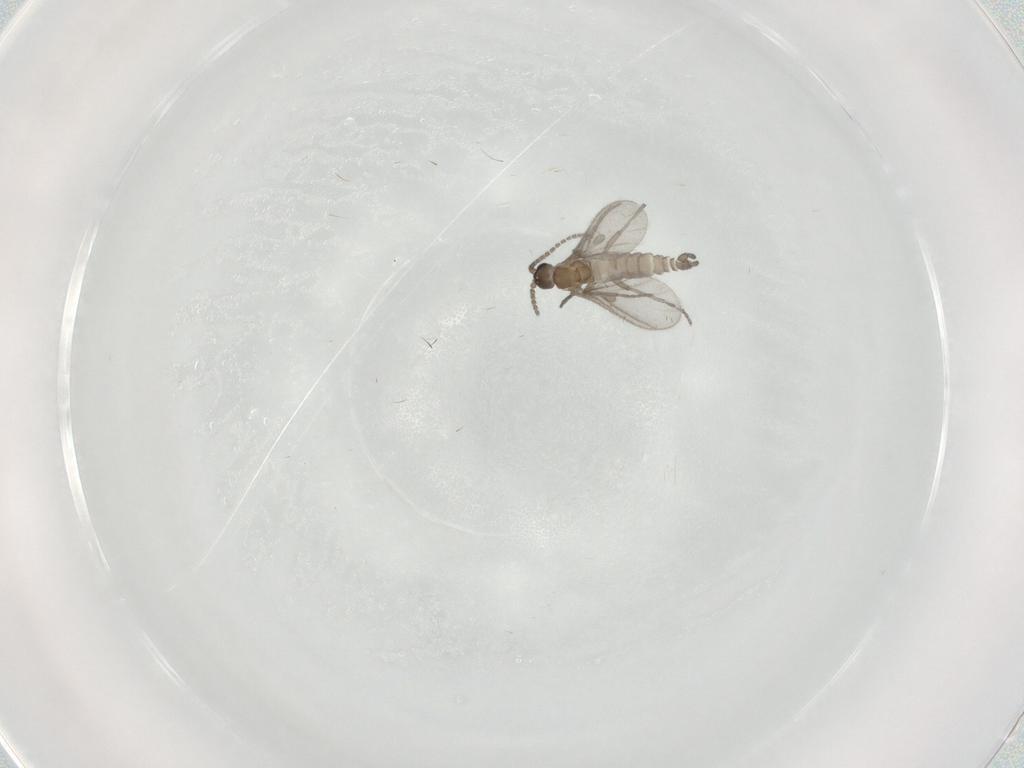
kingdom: Animalia
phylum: Arthropoda
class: Insecta
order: Diptera
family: Sciaridae
